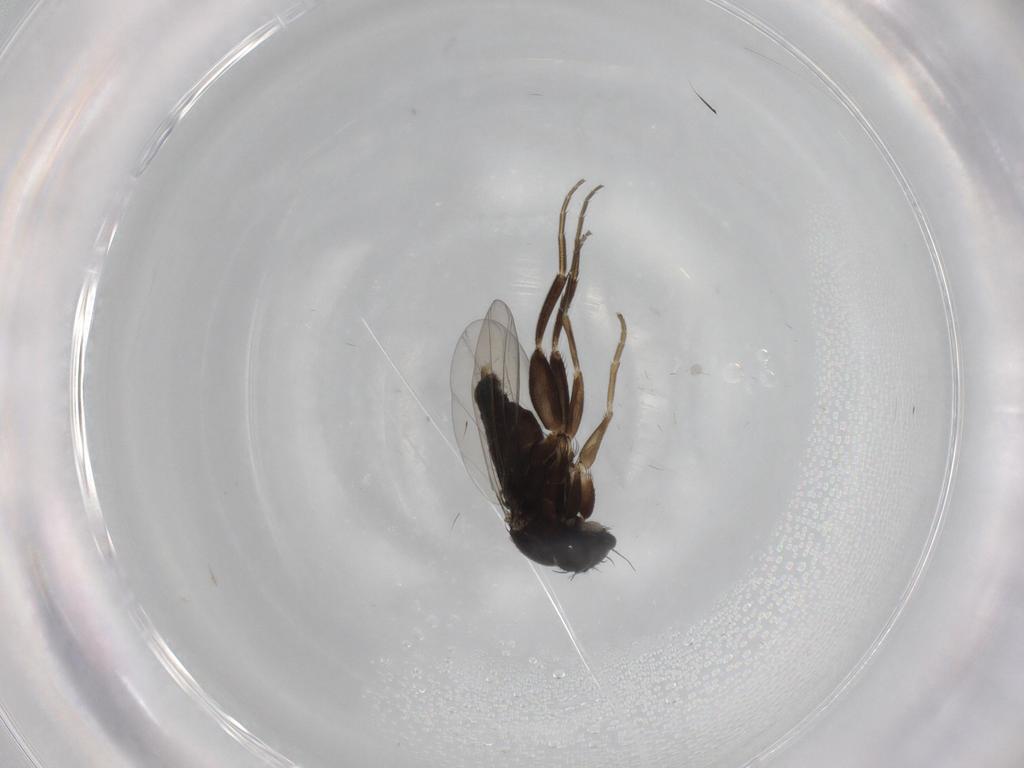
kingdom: Animalia
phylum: Arthropoda
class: Insecta
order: Diptera
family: Phoridae
